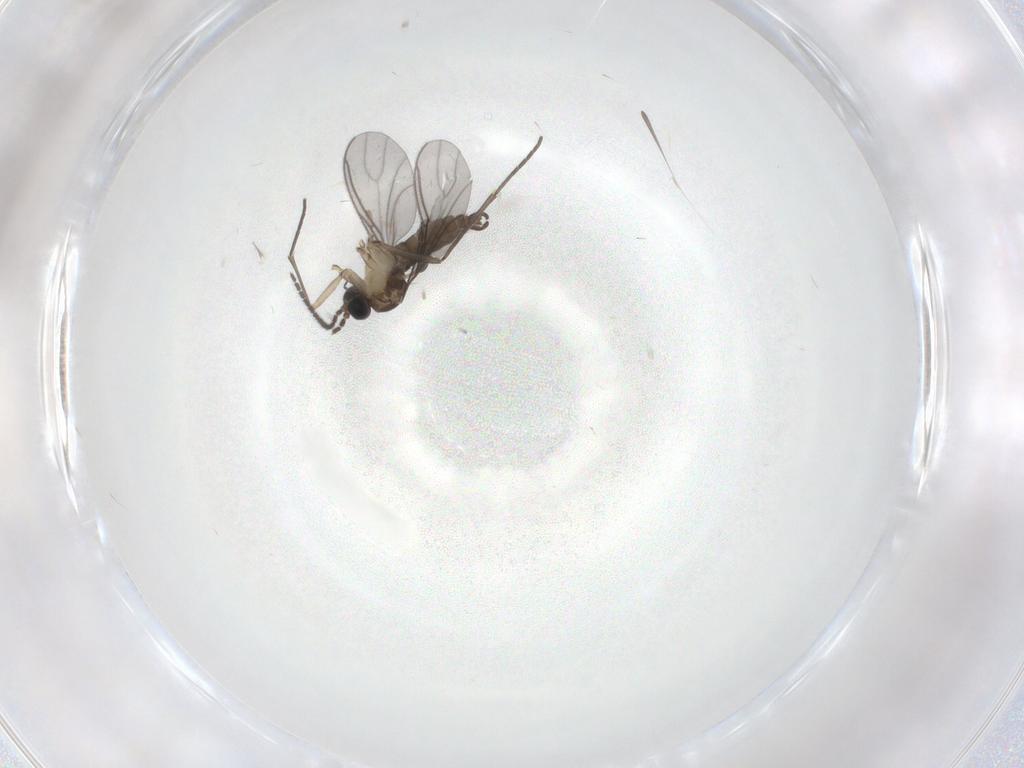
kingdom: Animalia
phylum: Arthropoda
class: Insecta
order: Diptera
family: Sciaridae
